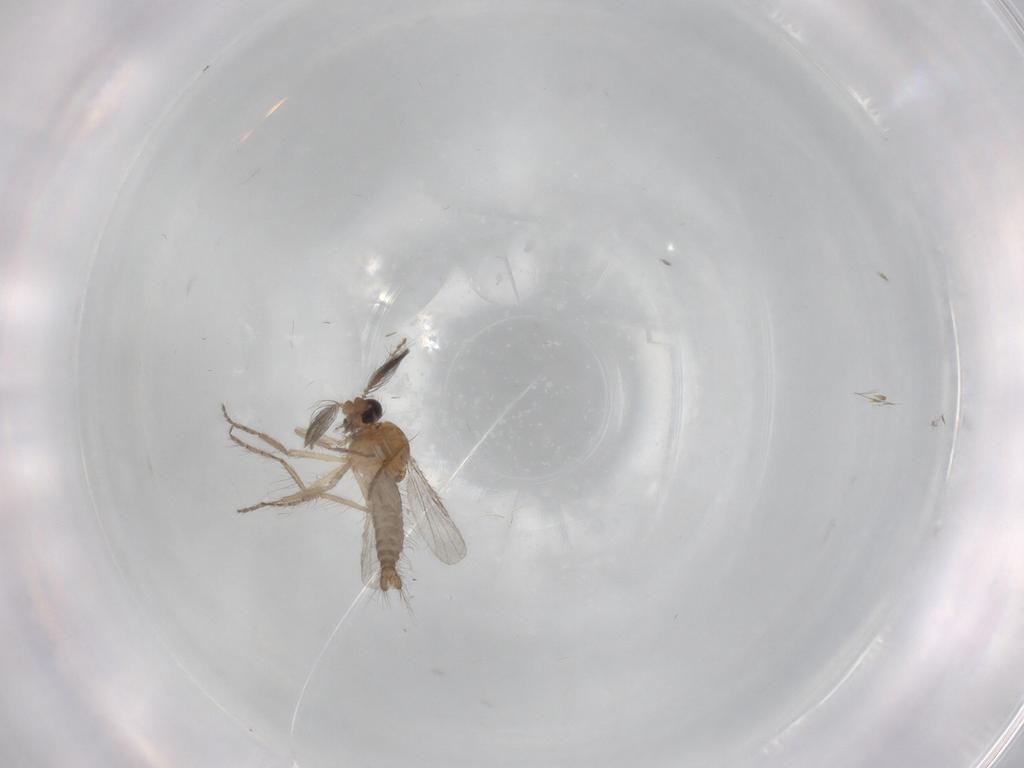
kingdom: Animalia
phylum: Arthropoda
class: Insecta
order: Diptera
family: Ceratopogonidae
